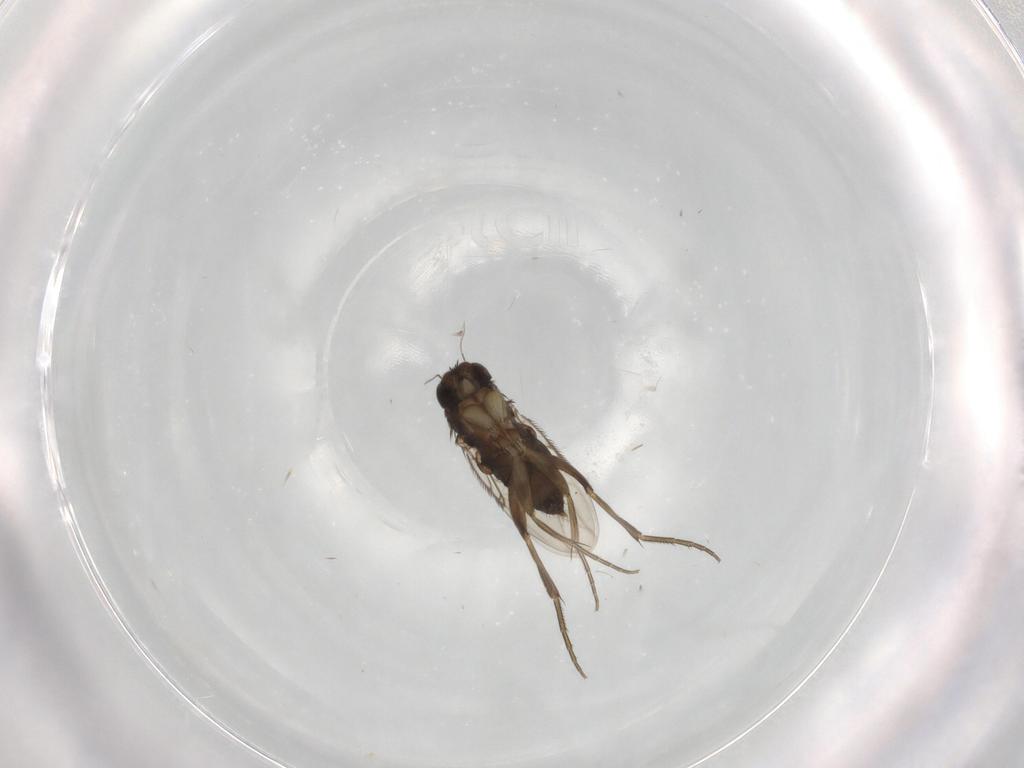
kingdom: Animalia
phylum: Arthropoda
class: Insecta
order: Diptera
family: Phoridae
